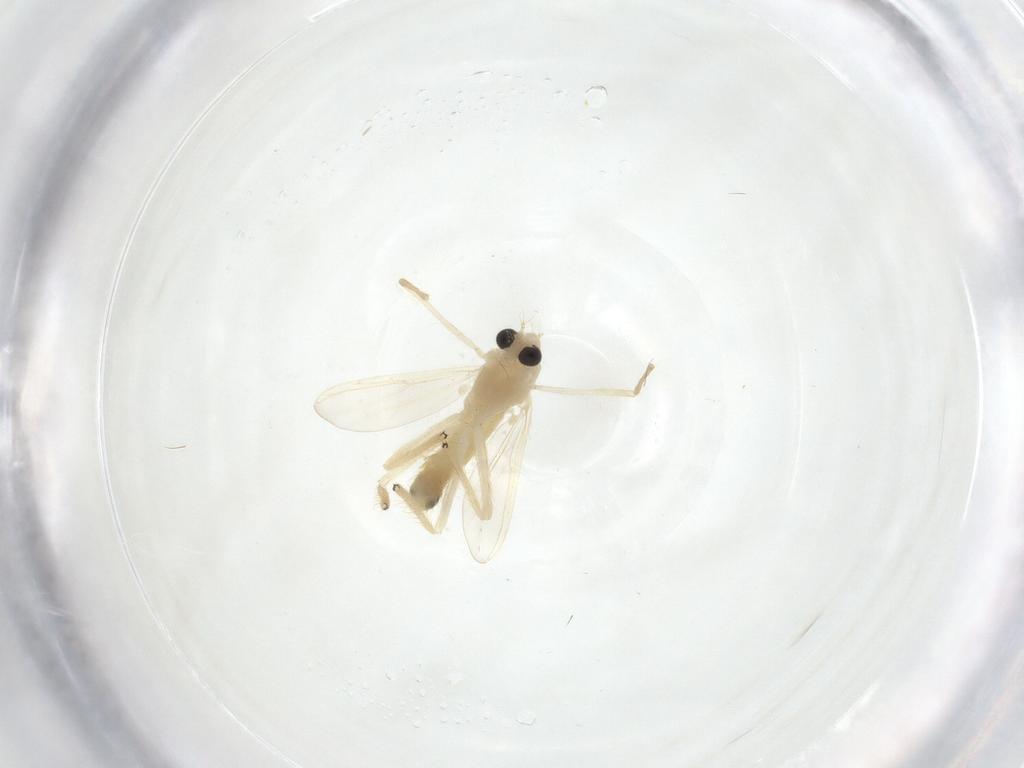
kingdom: Animalia
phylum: Arthropoda
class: Insecta
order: Diptera
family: Chironomidae
